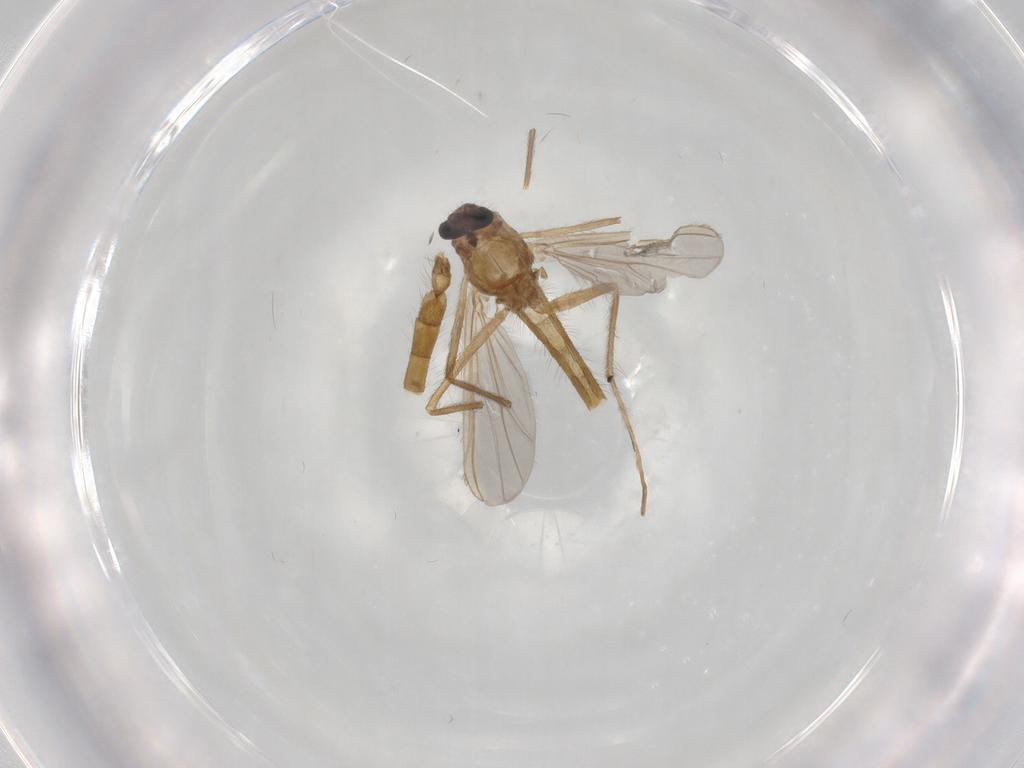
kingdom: Animalia
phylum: Arthropoda
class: Insecta
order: Diptera
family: Chironomidae
